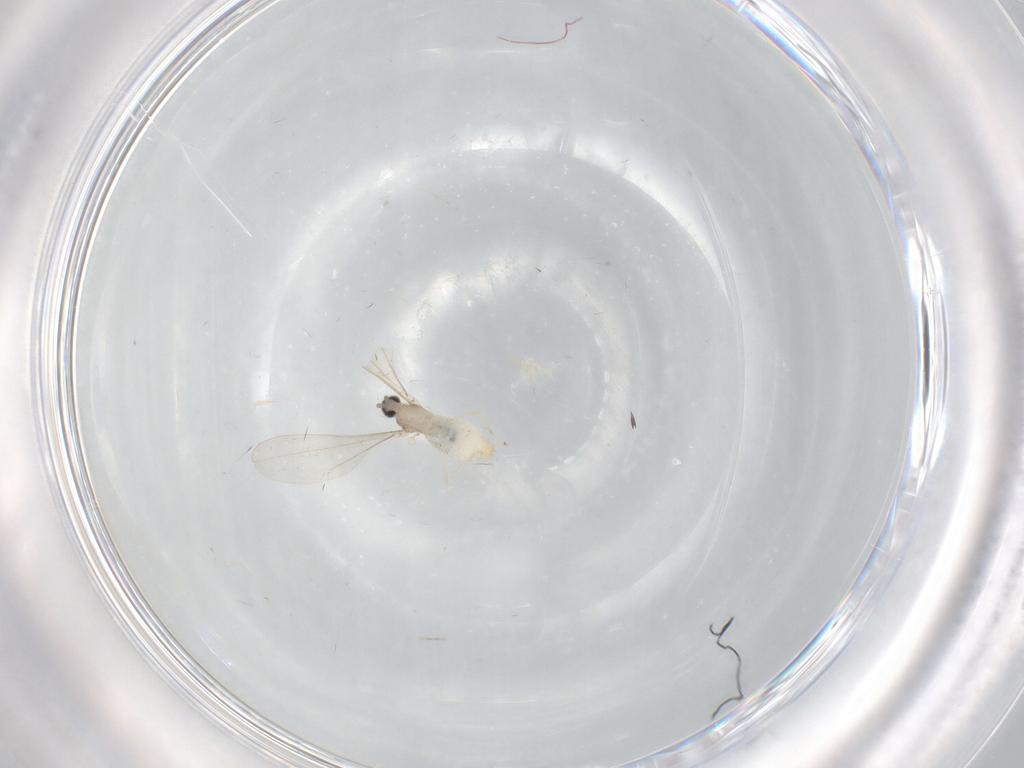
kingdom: Animalia
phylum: Arthropoda
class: Insecta
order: Diptera
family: Cecidomyiidae
